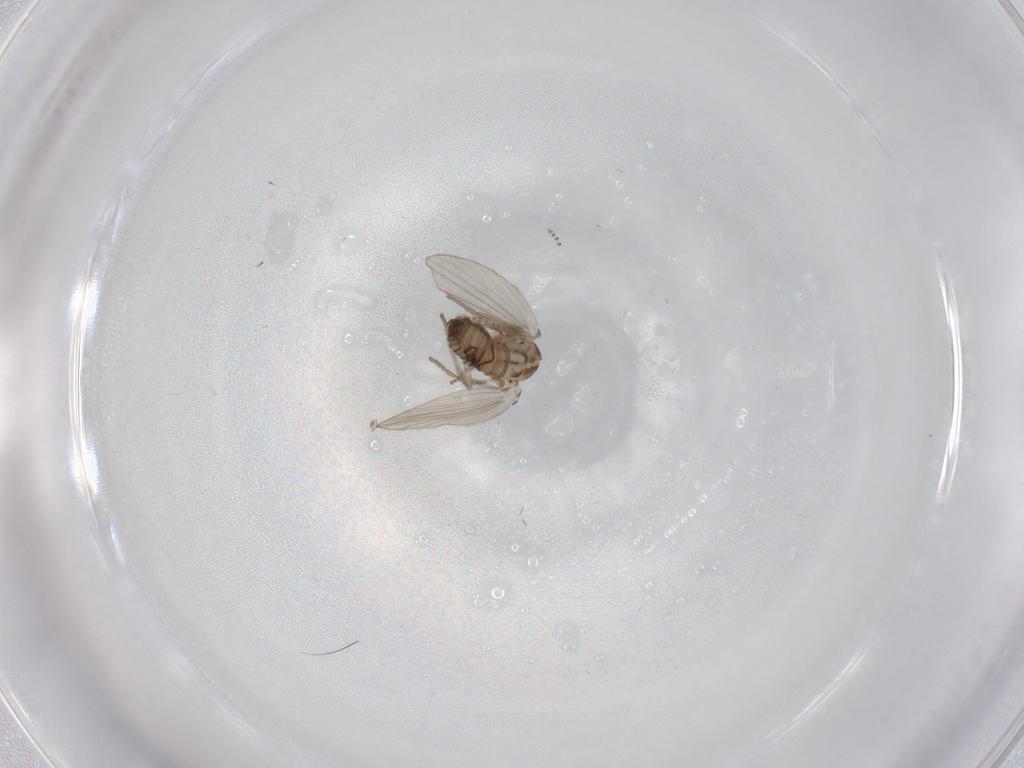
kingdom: Animalia
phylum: Arthropoda
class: Insecta
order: Diptera
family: Psychodidae
